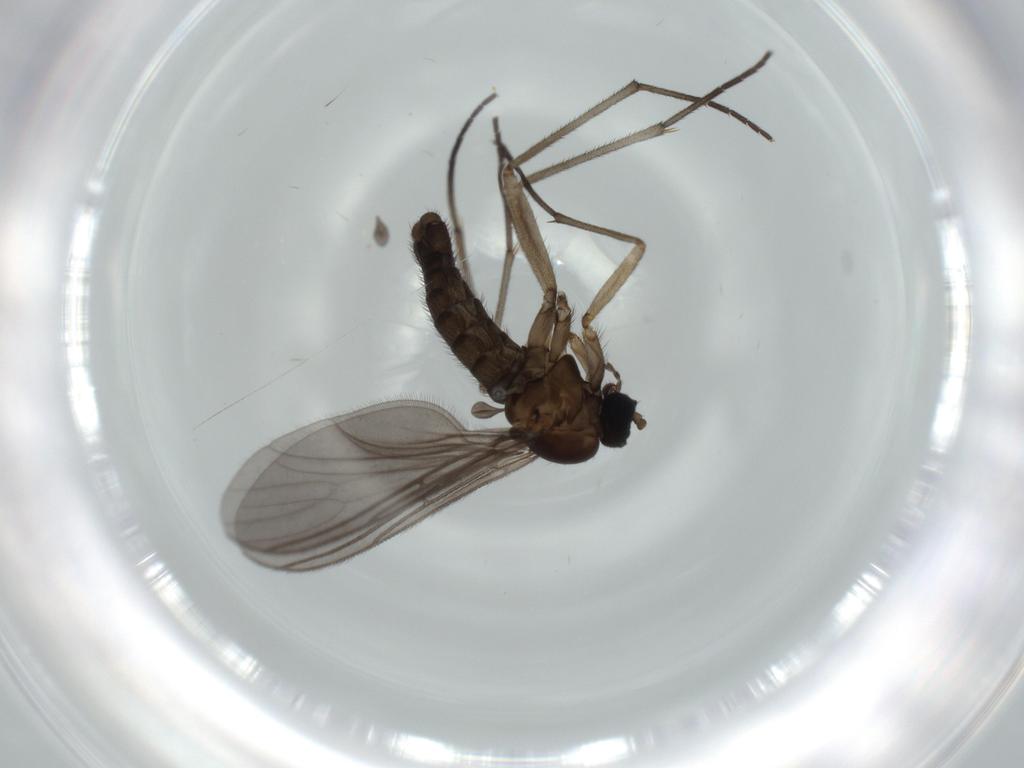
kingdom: Animalia
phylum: Arthropoda
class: Insecta
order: Diptera
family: Sciaridae
